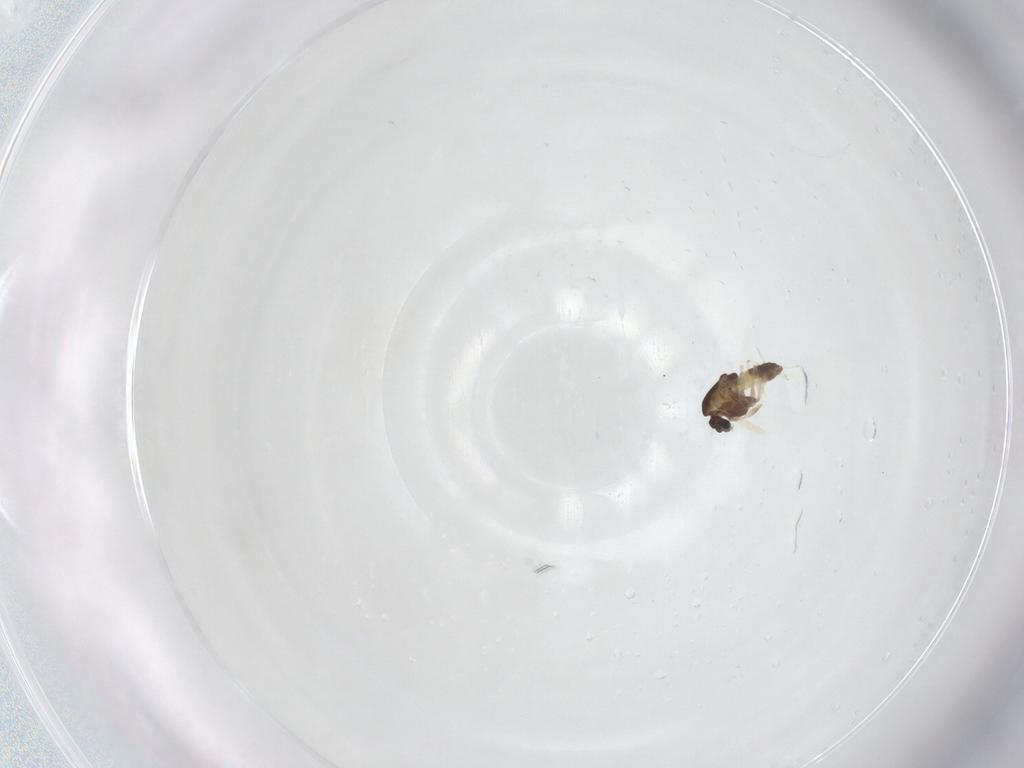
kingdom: Animalia
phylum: Arthropoda
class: Insecta
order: Diptera
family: Chironomidae
